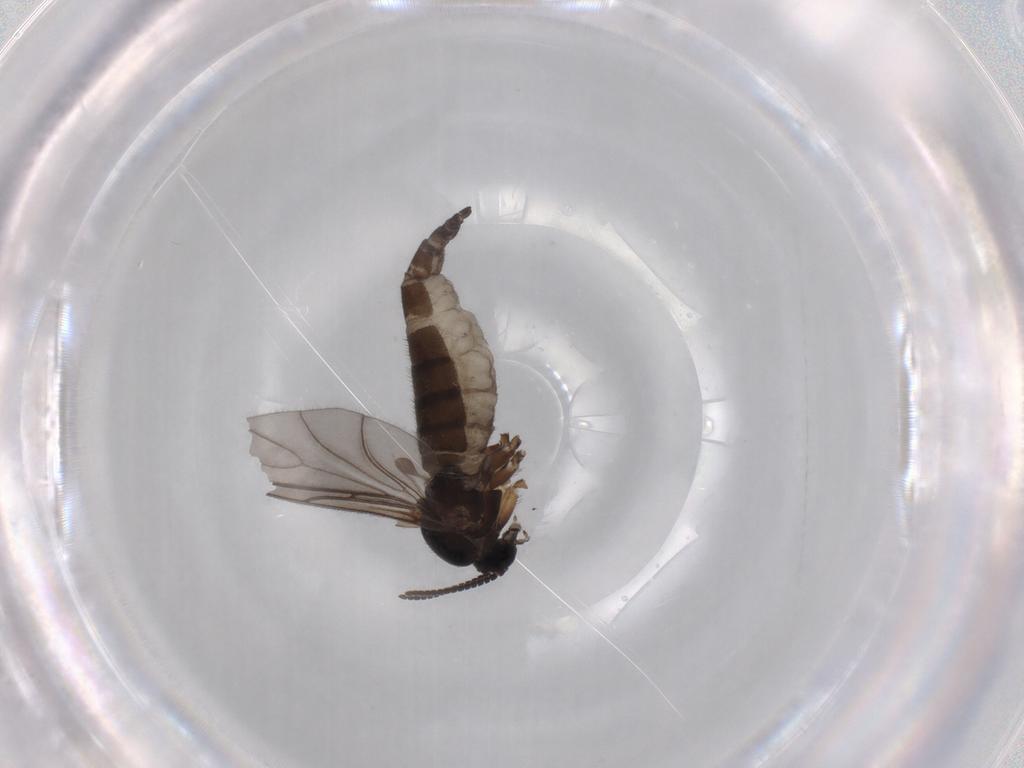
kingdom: Animalia
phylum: Arthropoda
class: Insecta
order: Diptera
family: Sciaridae
